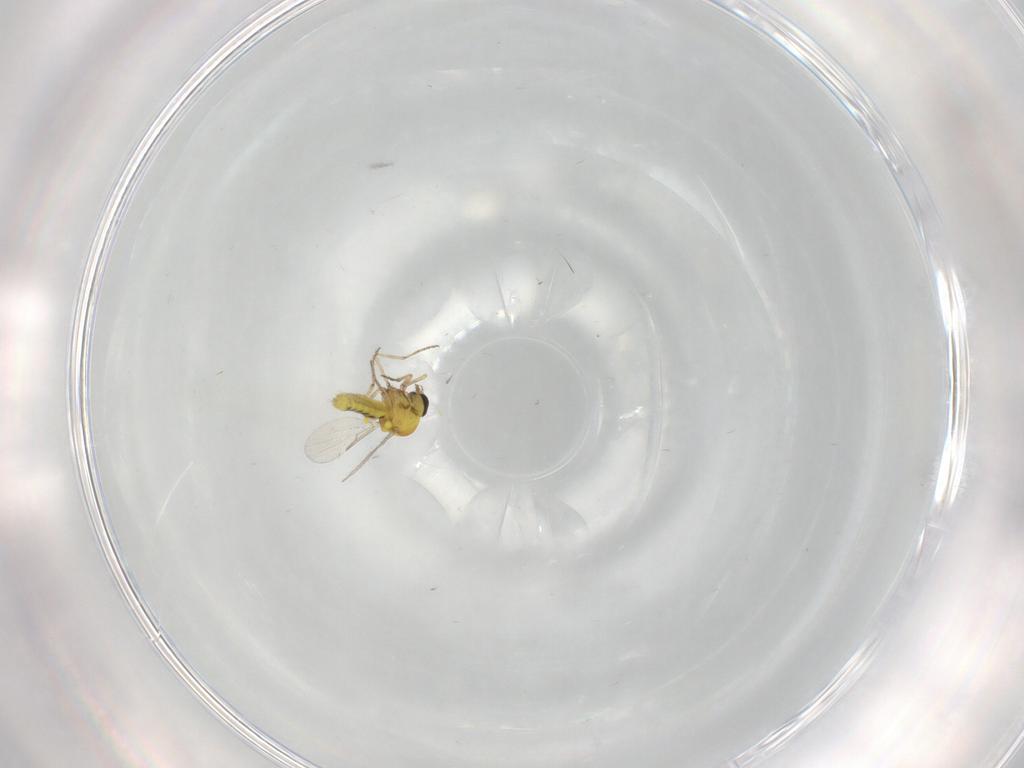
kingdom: Animalia
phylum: Arthropoda
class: Insecta
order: Diptera
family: Ceratopogonidae
